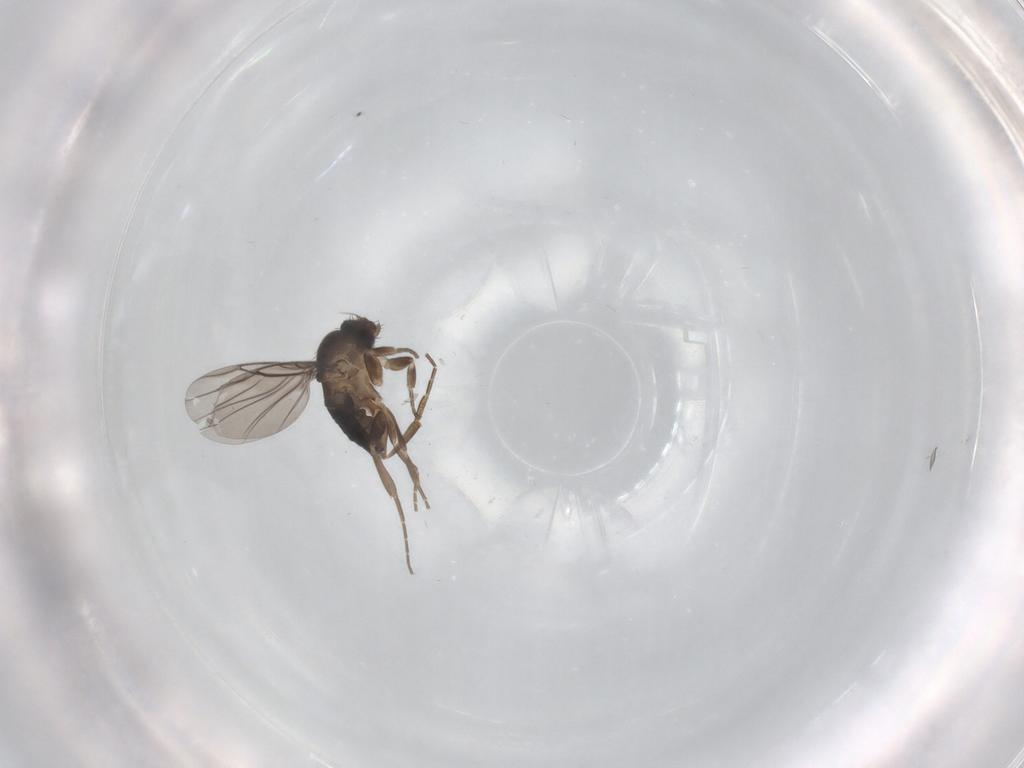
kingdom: Animalia
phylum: Arthropoda
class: Insecta
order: Diptera
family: Phoridae
